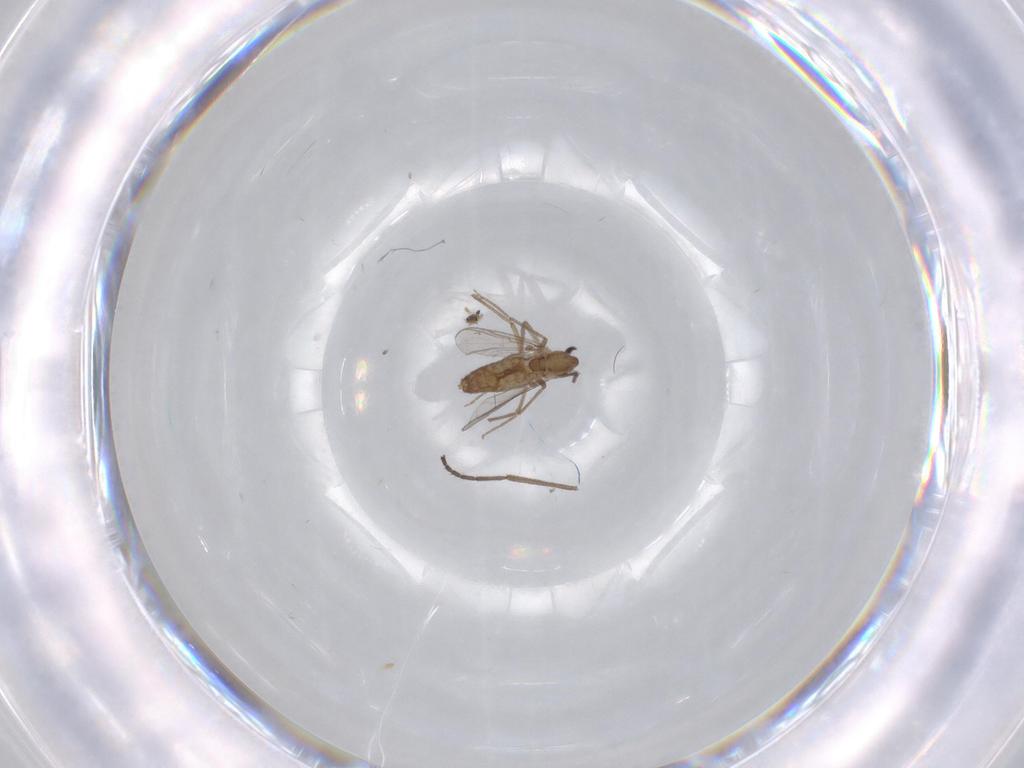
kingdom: Animalia
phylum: Arthropoda
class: Insecta
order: Diptera
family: Chironomidae
